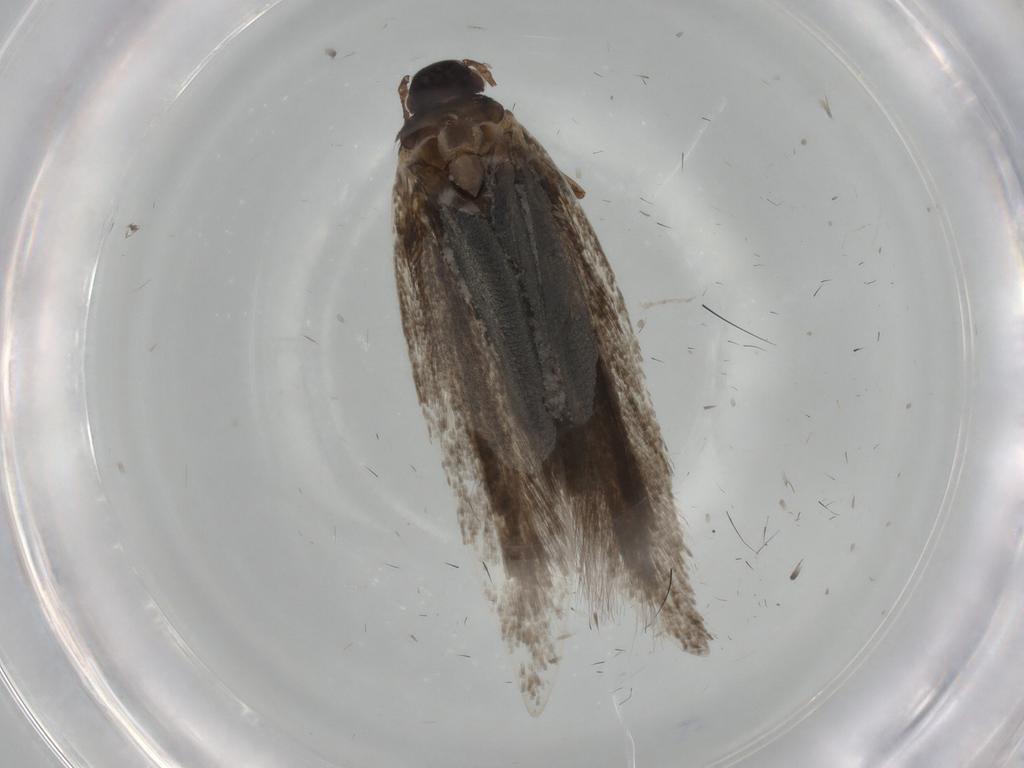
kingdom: Animalia
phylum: Arthropoda
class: Insecta
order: Lepidoptera
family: Gelechiidae
